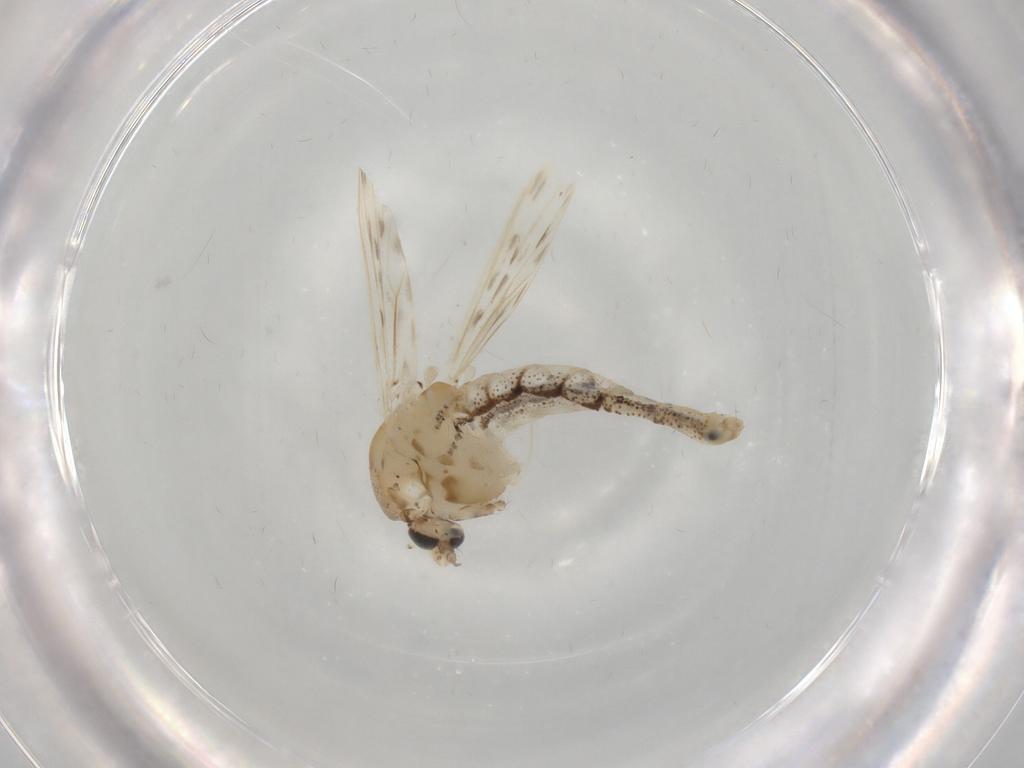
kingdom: Animalia
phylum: Arthropoda
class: Insecta
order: Diptera
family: Chaoboridae
